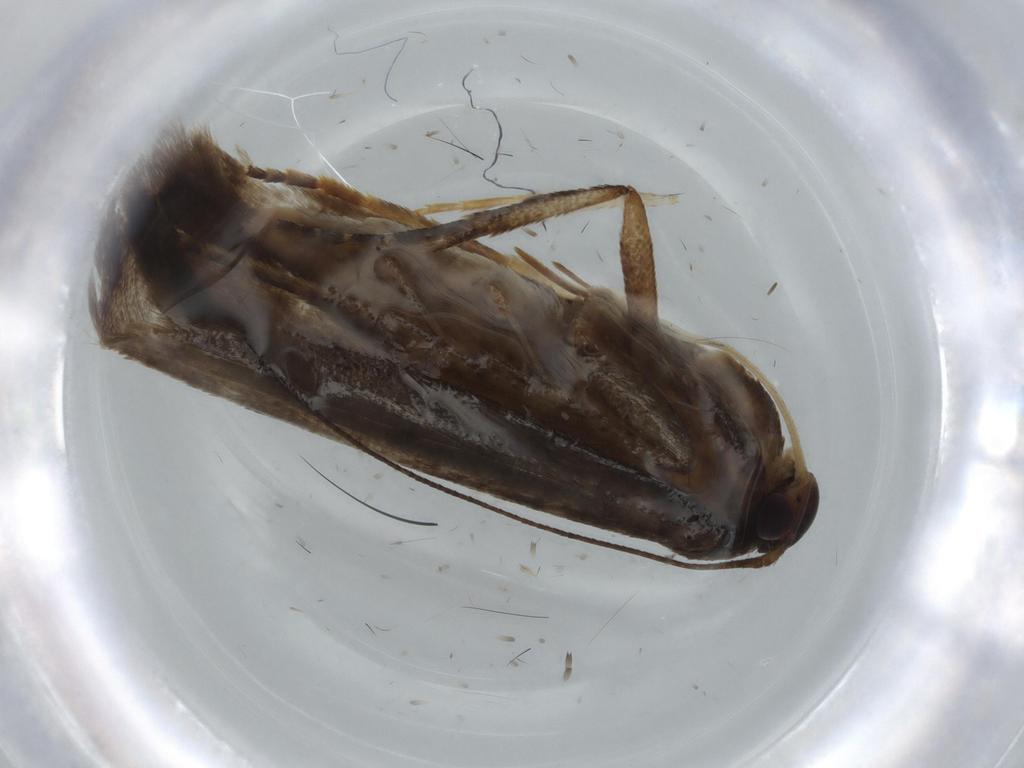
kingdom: Animalia
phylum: Arthropoda
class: Insecta
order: Lepidoptera
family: Gelechiidae
